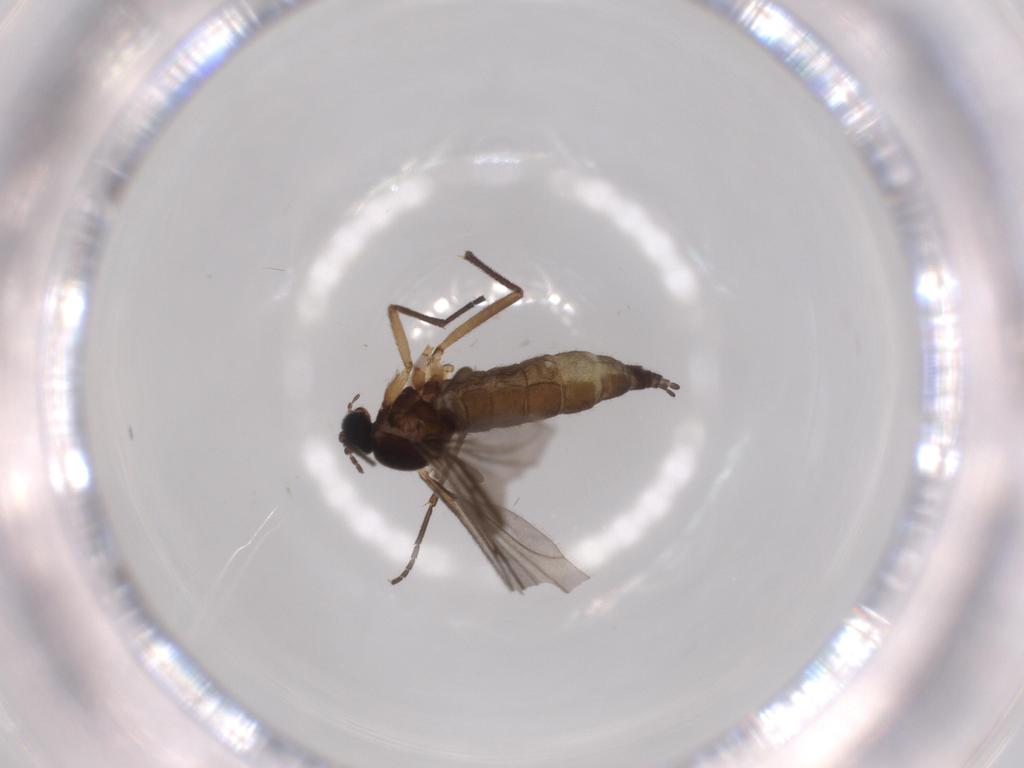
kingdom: Animalia
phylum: Arthropoda
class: Insecta
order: Diptera
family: Sciaridae
